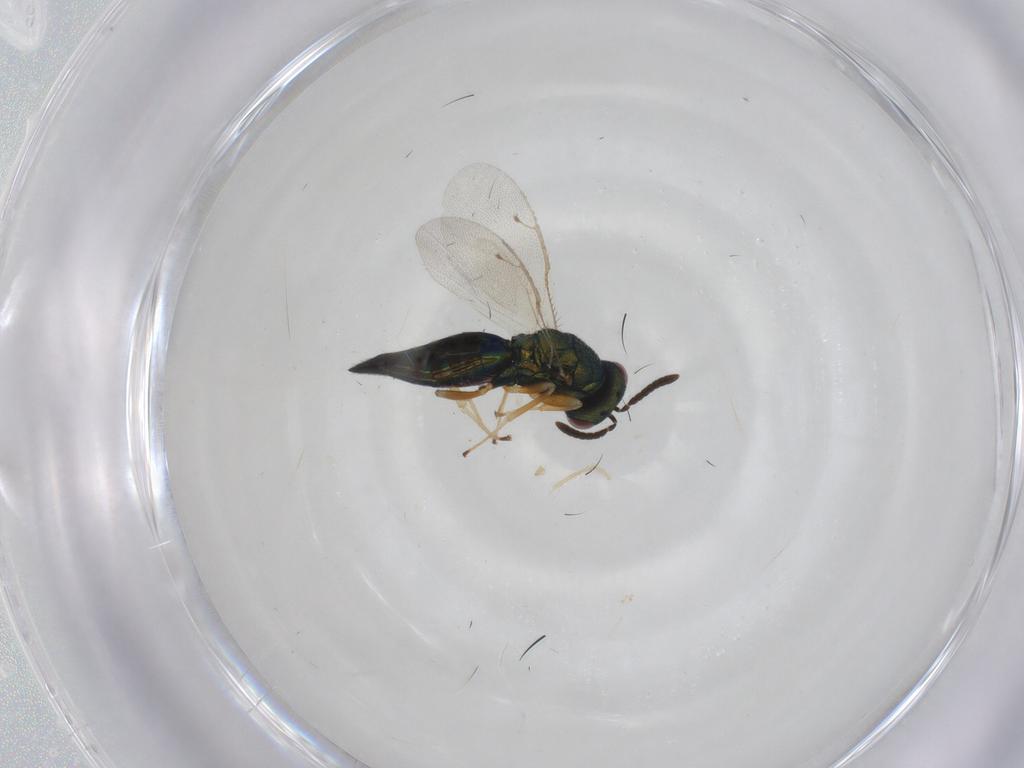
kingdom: Animalia
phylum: Arthropoda
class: Insecta
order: Hymenoptera
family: Pteromalidae
